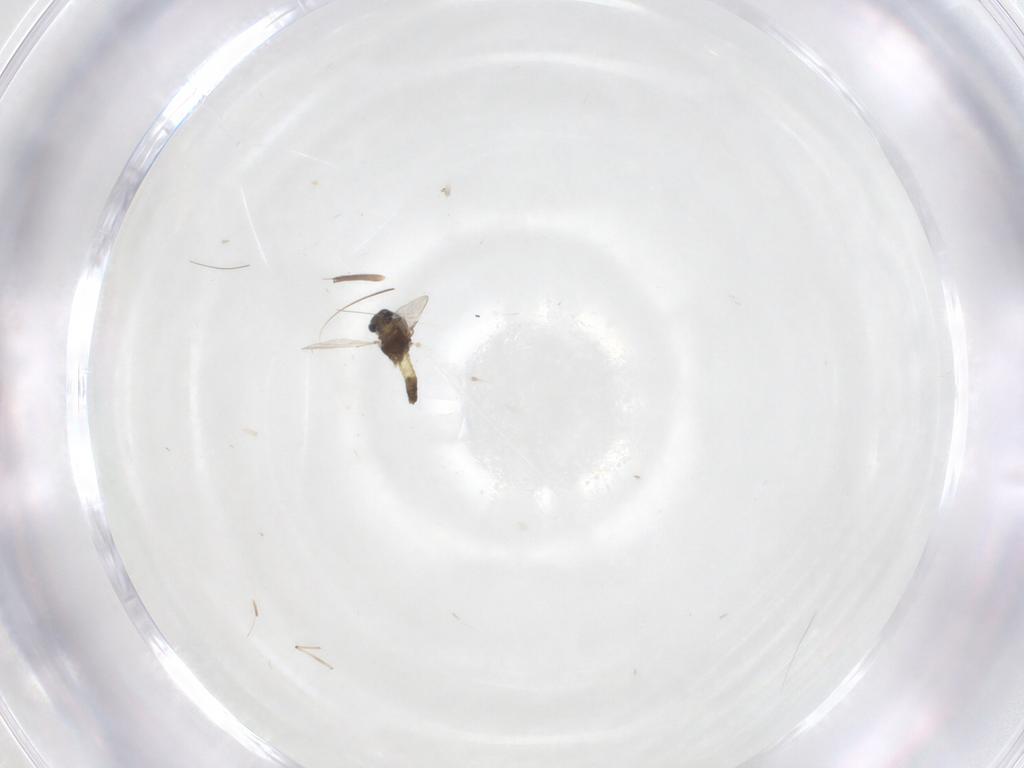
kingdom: Animalia
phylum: Arthropoda
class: Insecta
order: Diptera
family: Chironomidae
